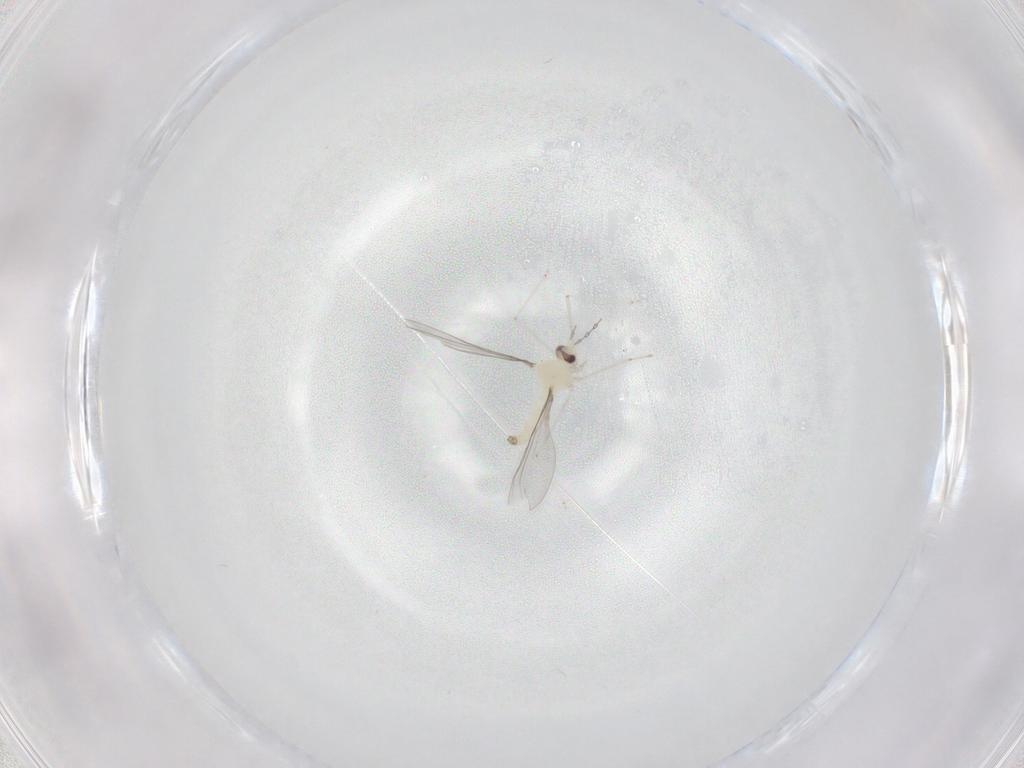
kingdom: Animalia
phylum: Arthropoda
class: Insecta
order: Diptera
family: Cecidomyiidae
